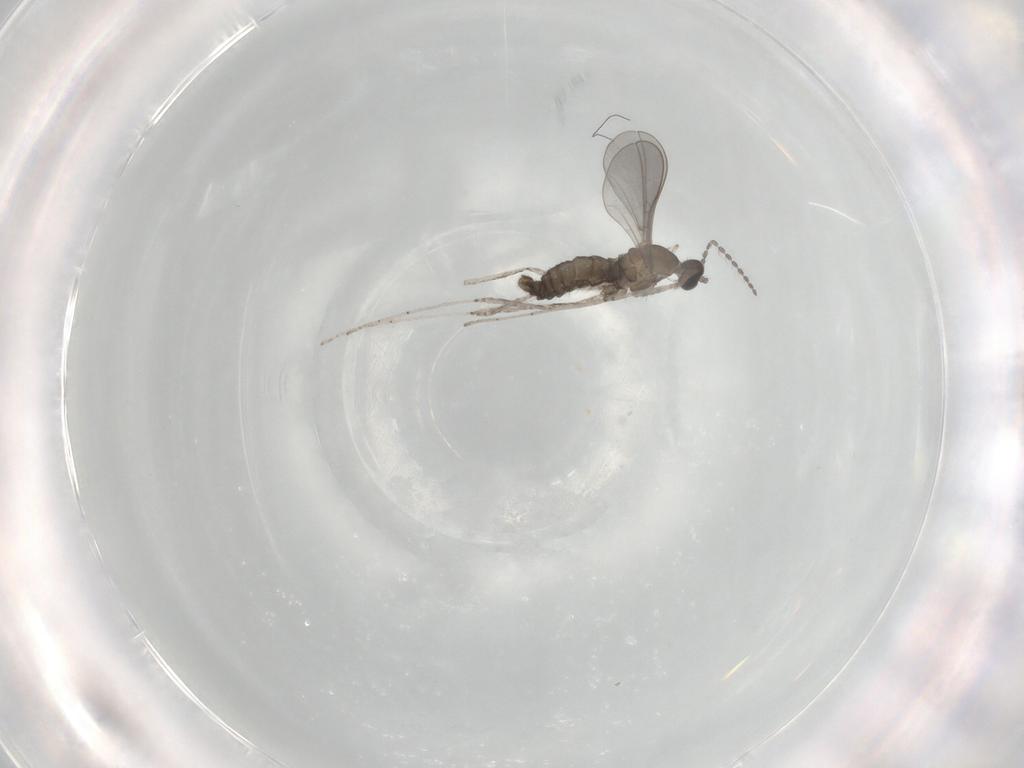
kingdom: Animalia
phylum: Arthropoda
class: Insecta
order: Diptera
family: Cecidomyiidae
